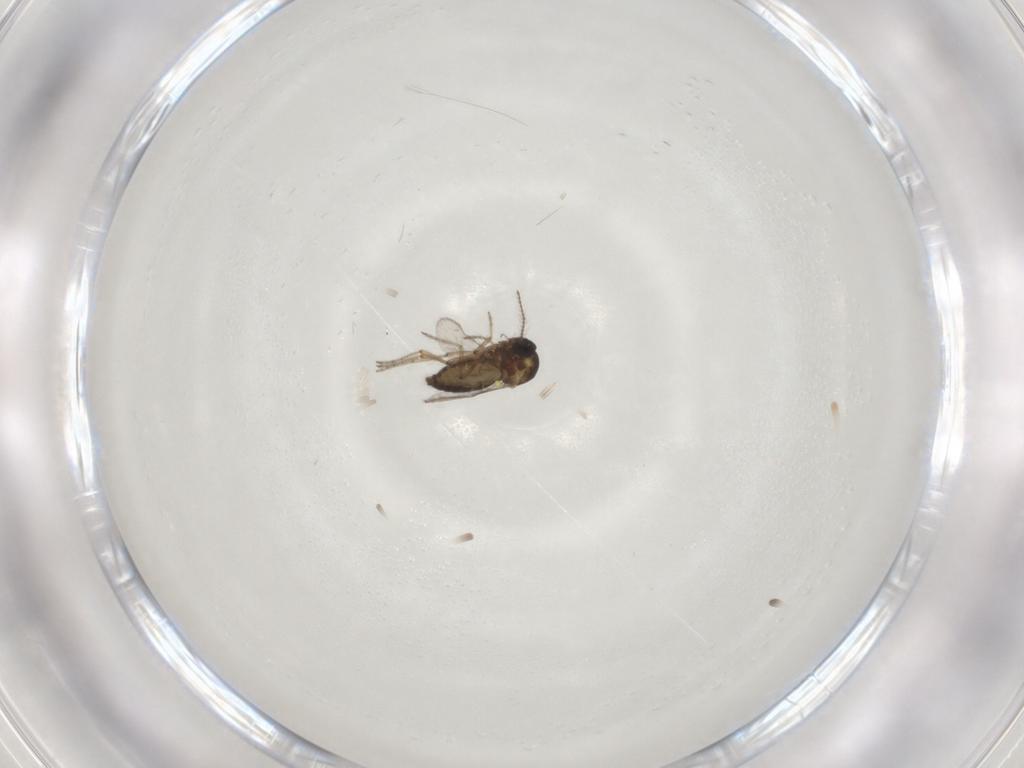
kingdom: Animalia
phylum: Arthropoda
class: Insecta
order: Diptera
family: Ceratopogonidae
